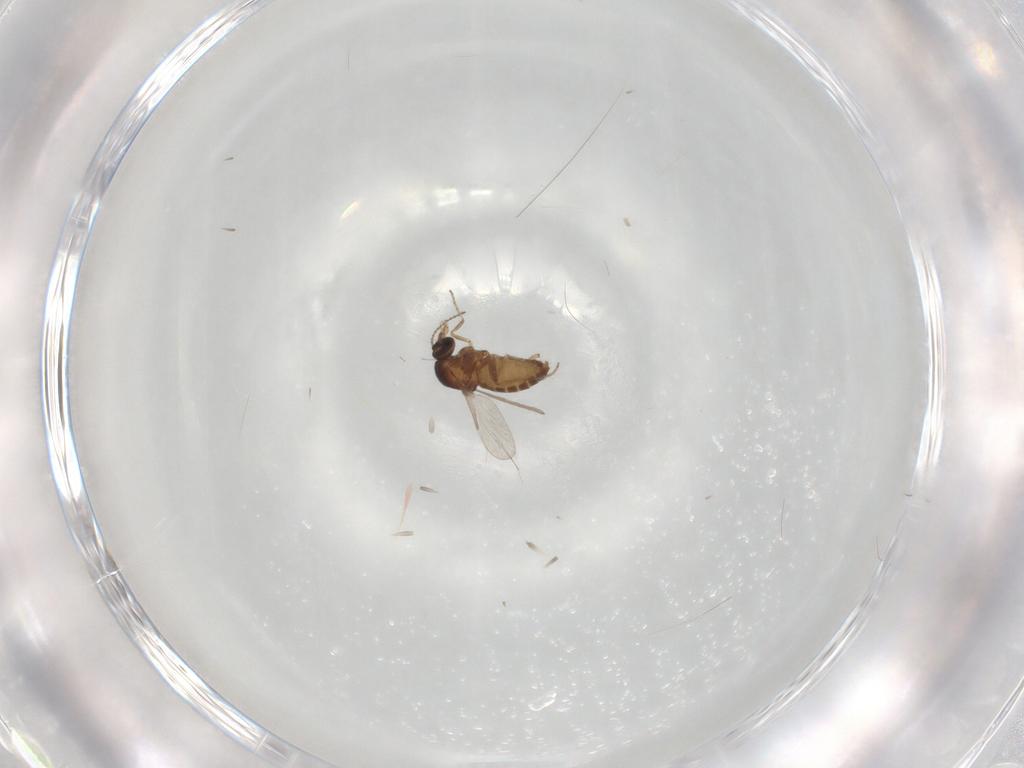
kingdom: Animalia
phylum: Arthropoda
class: Insecta
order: Diptera
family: Ceratopogonidae
